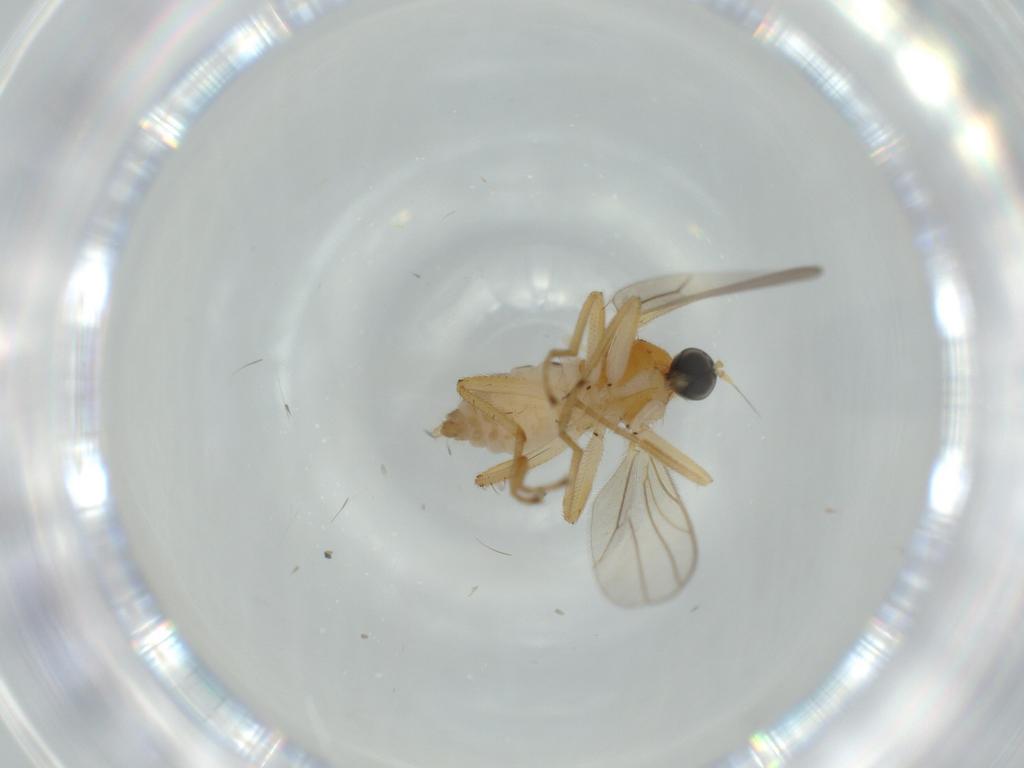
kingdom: Animalia
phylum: Arthropoda
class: Insecta
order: Diptera
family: Hybotidae
